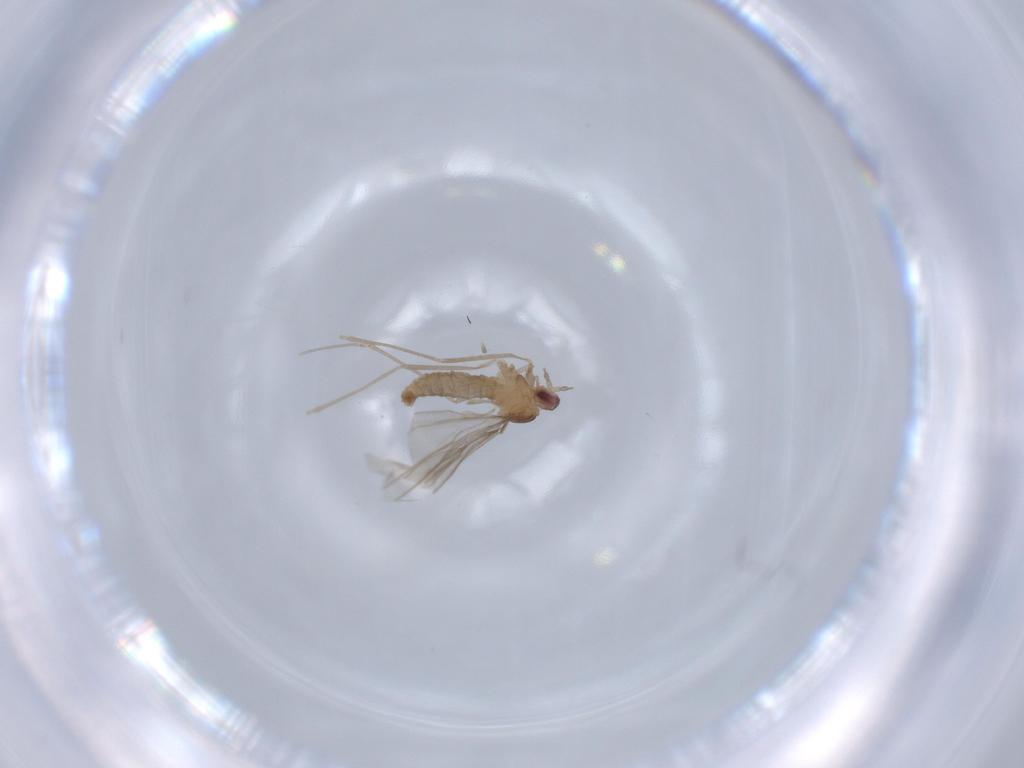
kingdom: Animalia
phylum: Arthropoda
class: Insecta
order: Diptera
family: Cecidomyiidae
